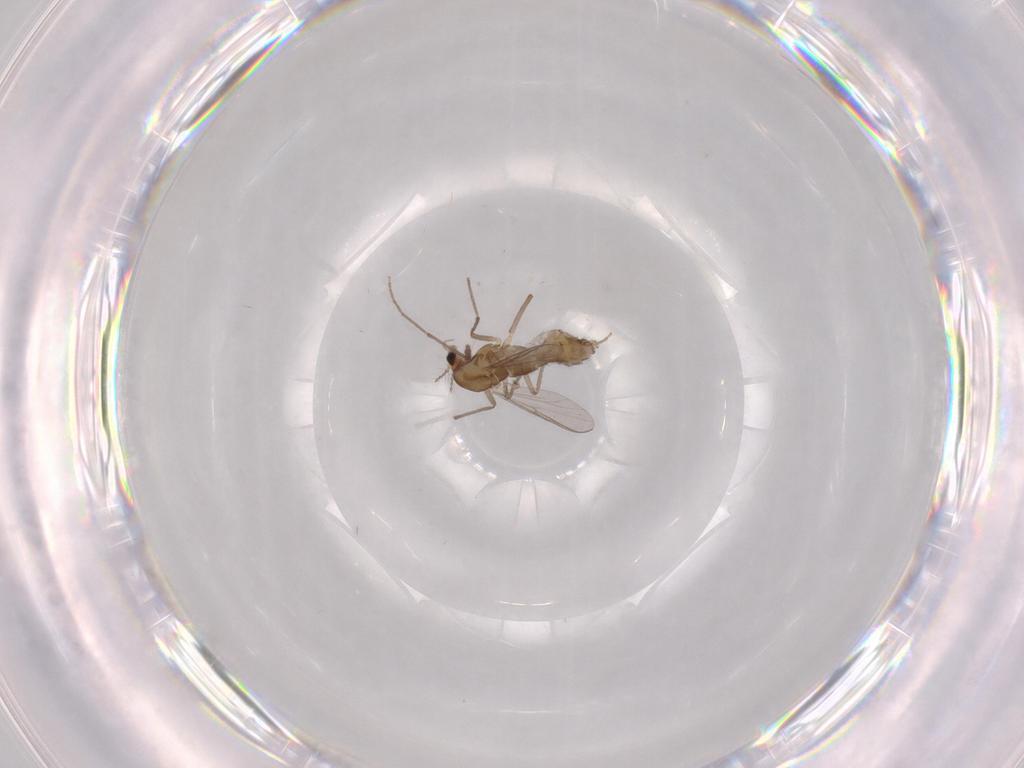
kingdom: Animalia
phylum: Arthropoda
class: Insecta
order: Diptera
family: Chironomidae
